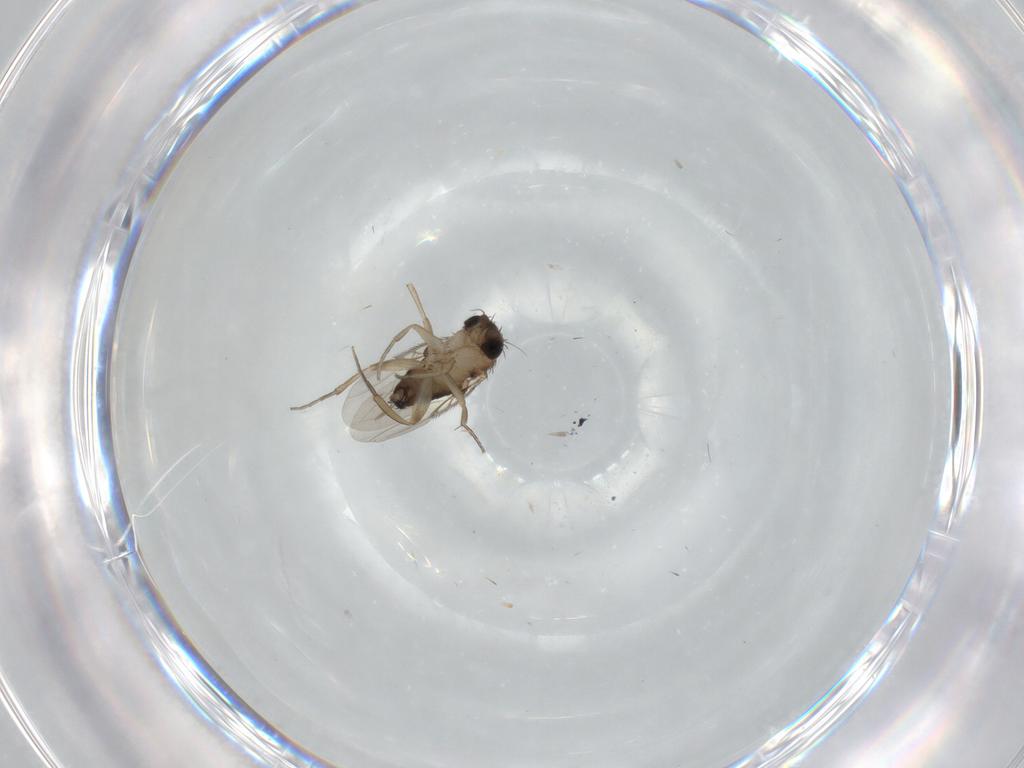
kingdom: Animalia
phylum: Arthropoda
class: Insecta
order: Diptera
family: Phoridae
